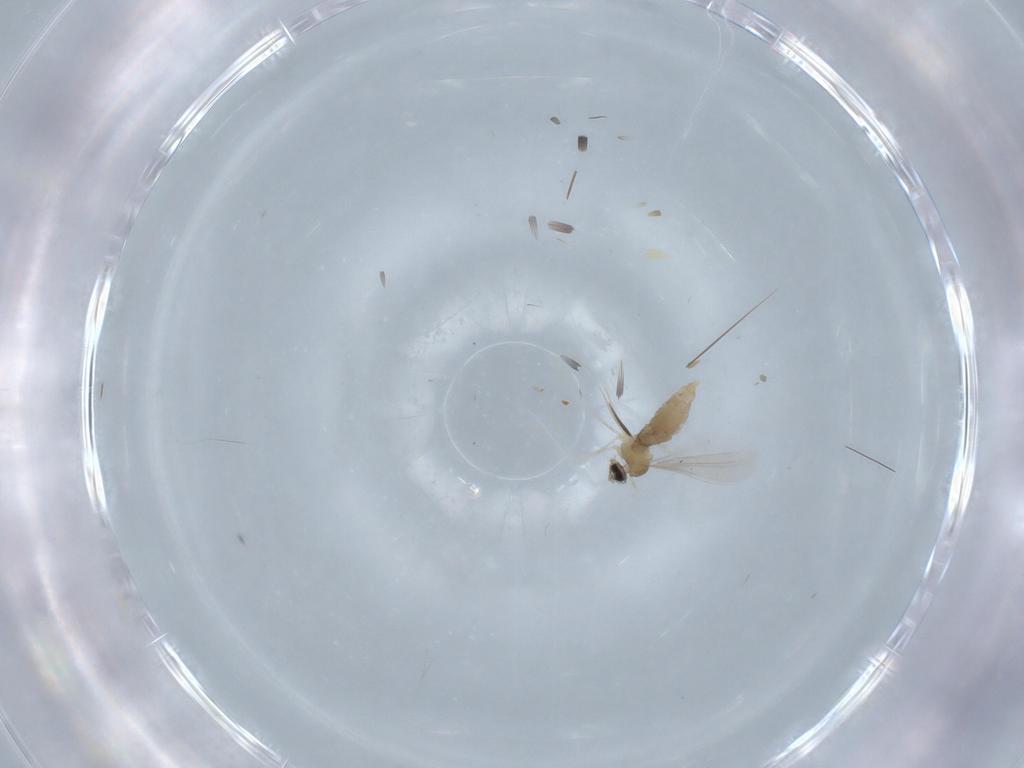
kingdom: Animalia
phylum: Arthropoda
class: Insecta
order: Diptera
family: Cecidomyiidae
